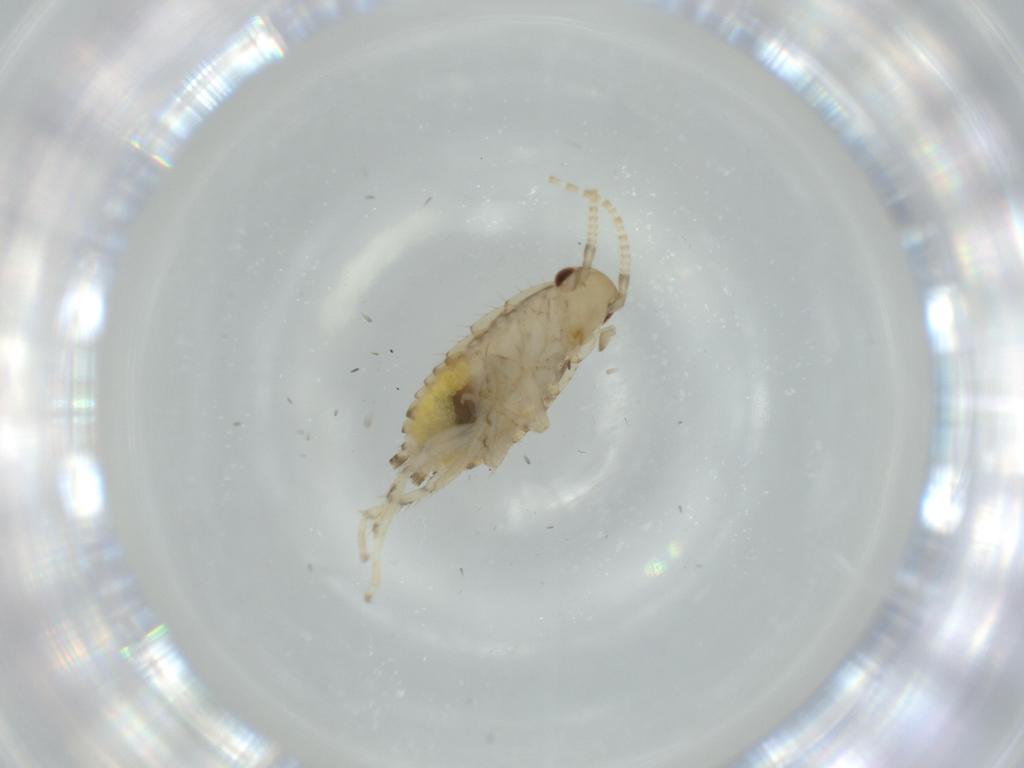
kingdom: Animalia
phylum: Arthropoda
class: Insecta
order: Blattodea
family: Ectobiidae
